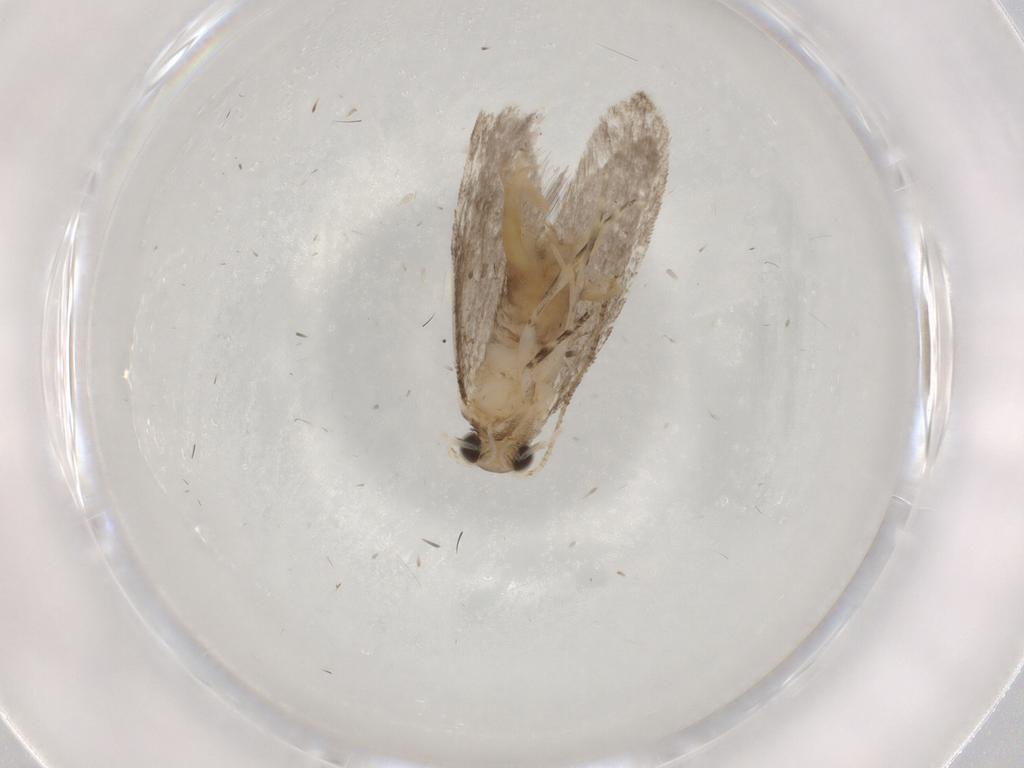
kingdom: Animalia
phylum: Arthropoda
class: Insecta
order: Lepidoptera
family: Tineidae
